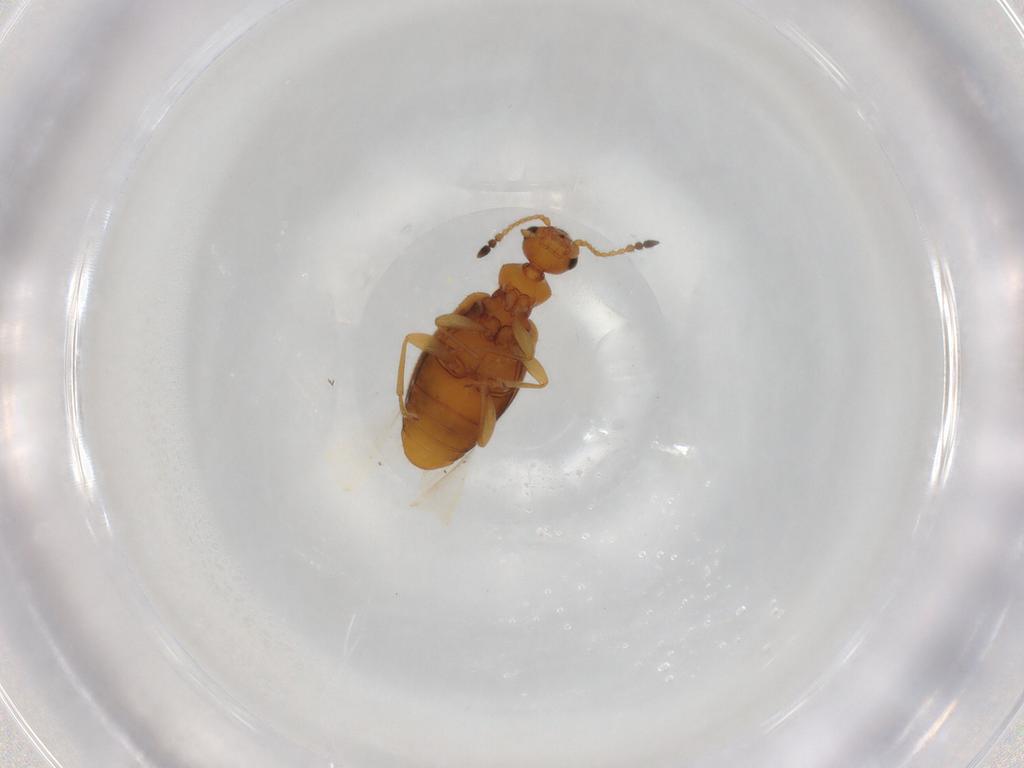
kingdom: Animalia
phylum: Arthropoda
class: Insecta
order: Coleoptera
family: Anthicidae
